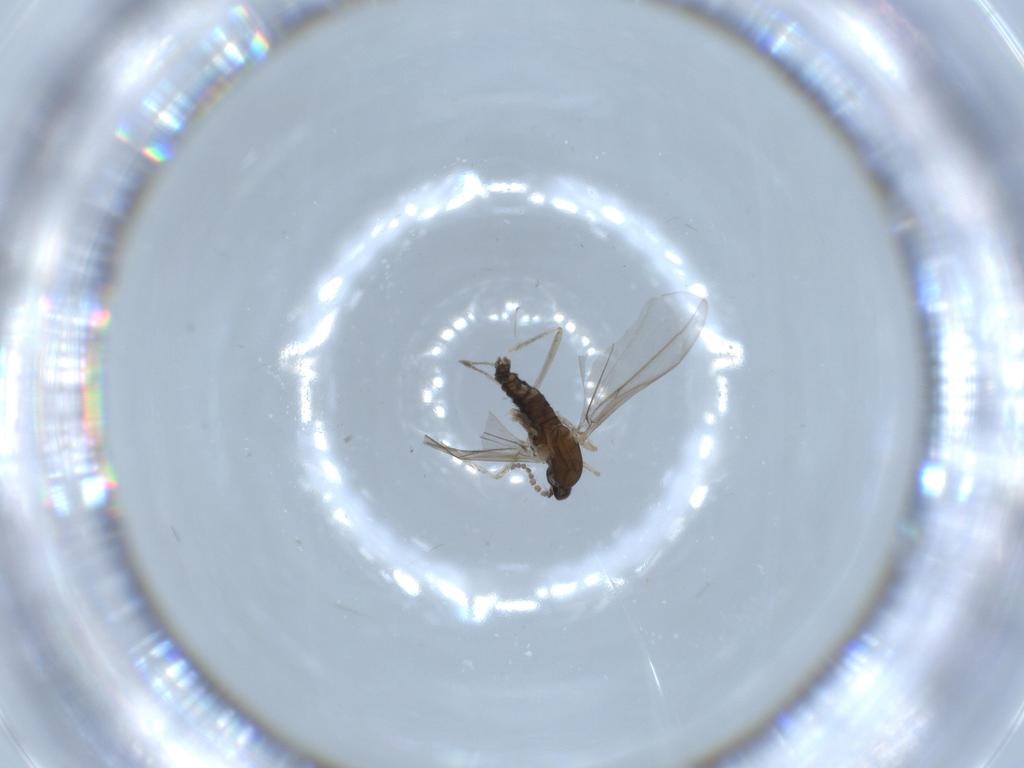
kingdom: Animalia
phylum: Arthropoda
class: Insecta
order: Diptera
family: Cecidomyiidae
